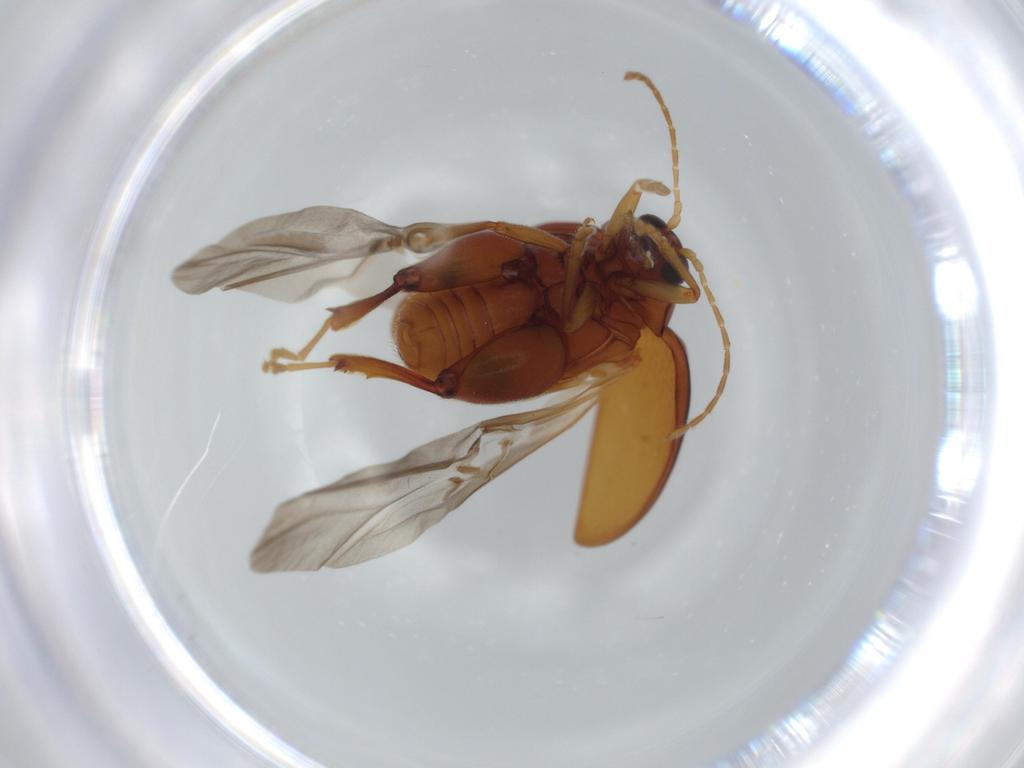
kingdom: Animalia
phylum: Arthropoda
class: Insecta
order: Coleoptera
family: Chrysomelidae
